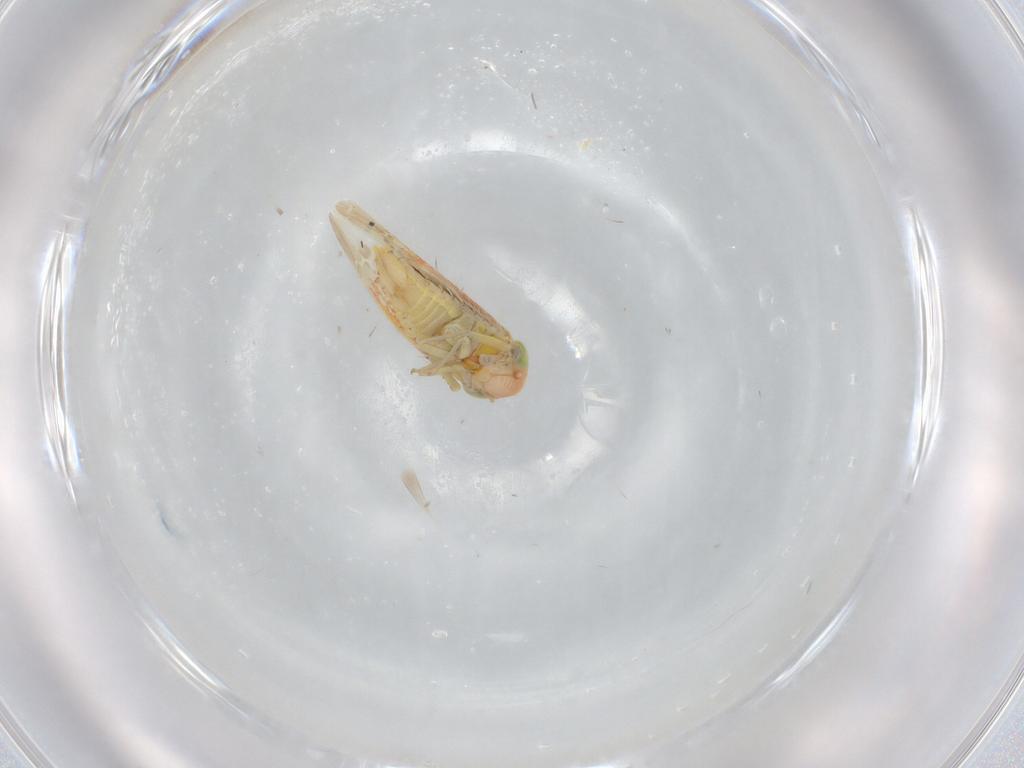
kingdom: Animalia
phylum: Arthropoda
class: Insecta
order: Hemiptera
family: Cicadellidae
